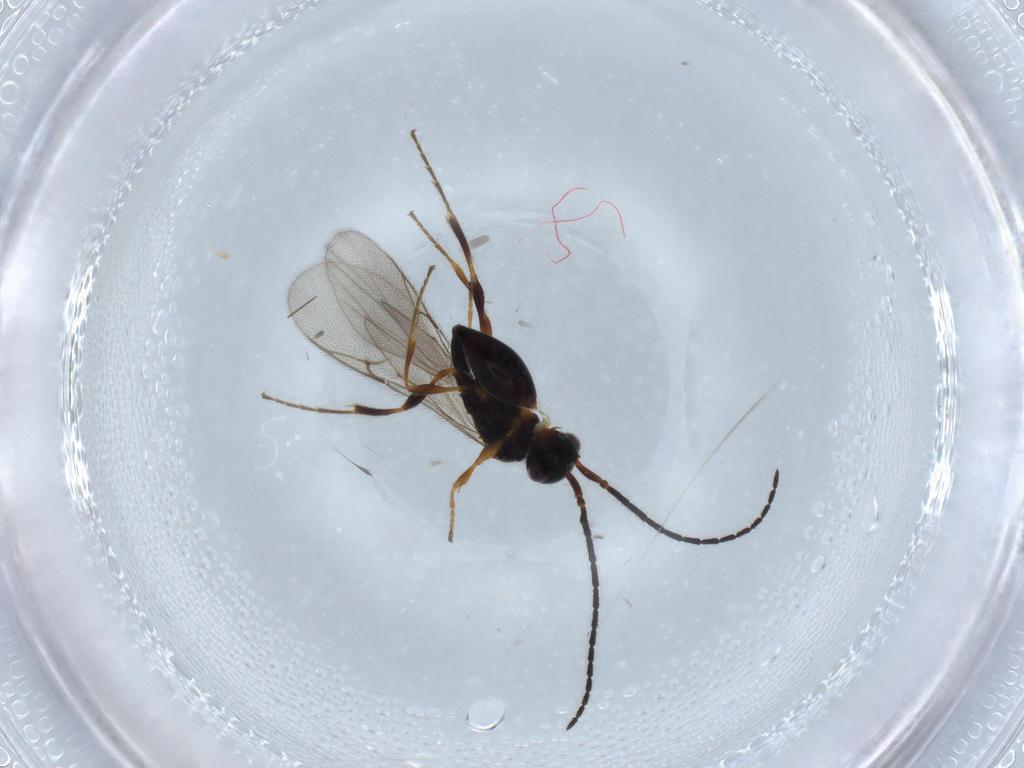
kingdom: Animalia
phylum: Arthropoda
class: Insecta
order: Hymenoptera
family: Diapriidae
